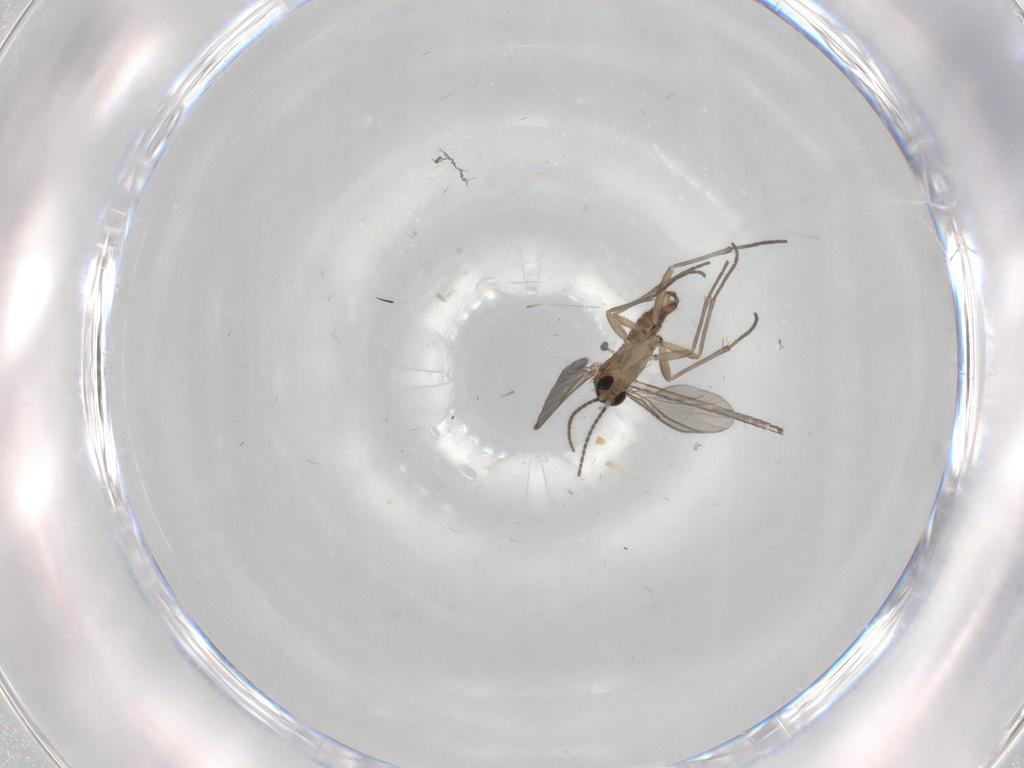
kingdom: Animalia
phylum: Arthropoda
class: Insecta
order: Diptera
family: Sciaridae
